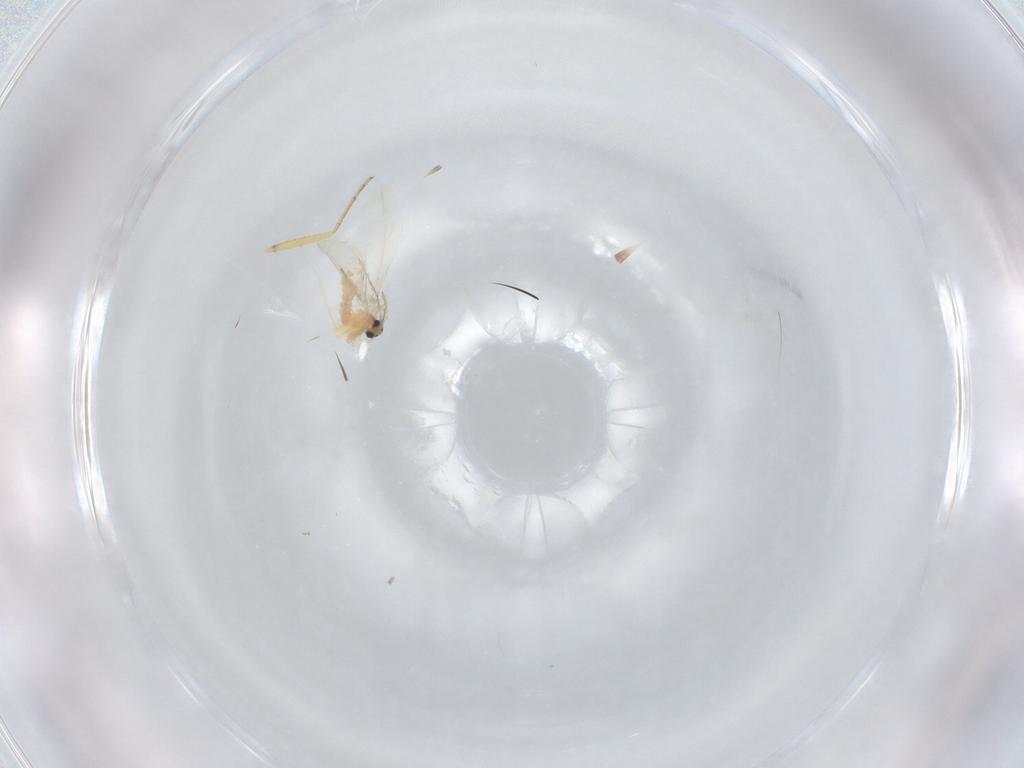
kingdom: Animalia
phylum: Arthropoda
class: Insecta
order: Diptera
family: Cecidomyiidae
